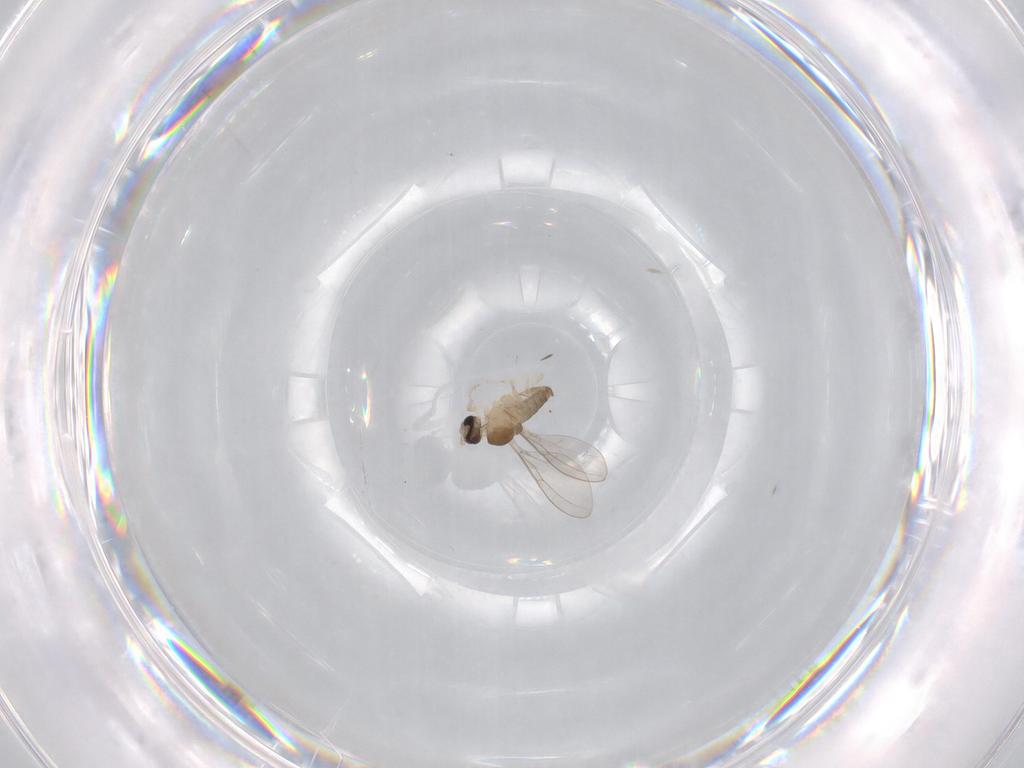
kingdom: Animalia
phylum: Arthropoda
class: Insecta
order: Diptera
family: Cecidomyiidae
